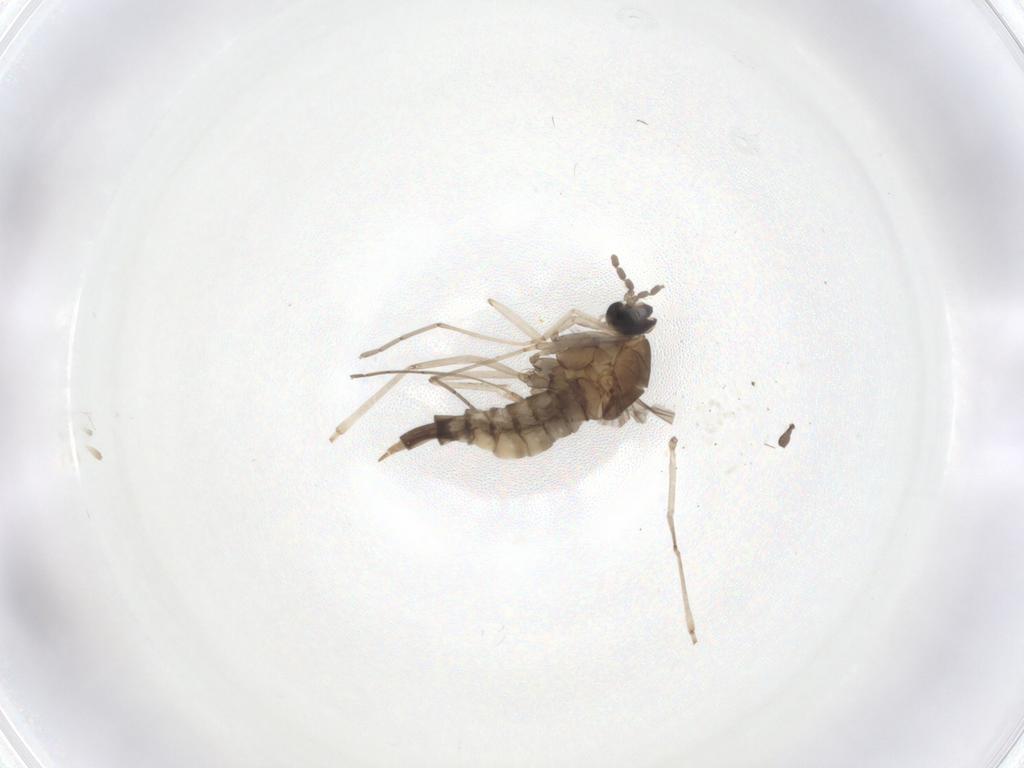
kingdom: Animalia
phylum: Arthropoda
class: Insecta
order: Diptera
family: Cecidomyiidae
